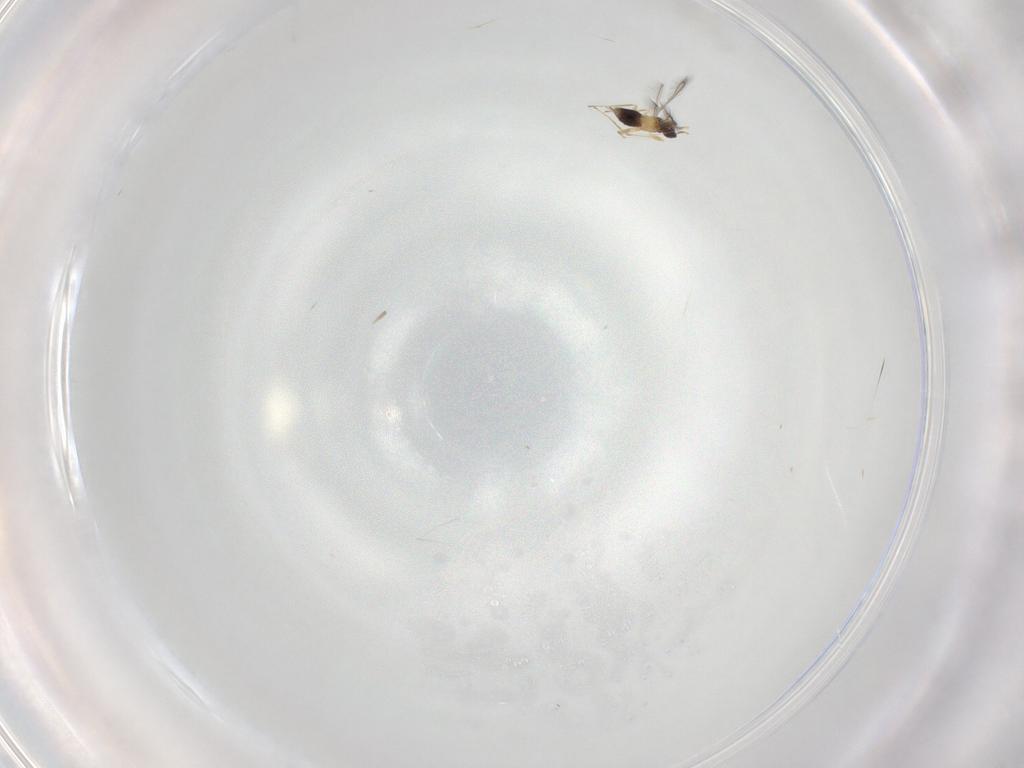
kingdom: Animalia
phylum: Arthropoda
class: Insecta
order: Hymenoptera
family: Mymaridae
